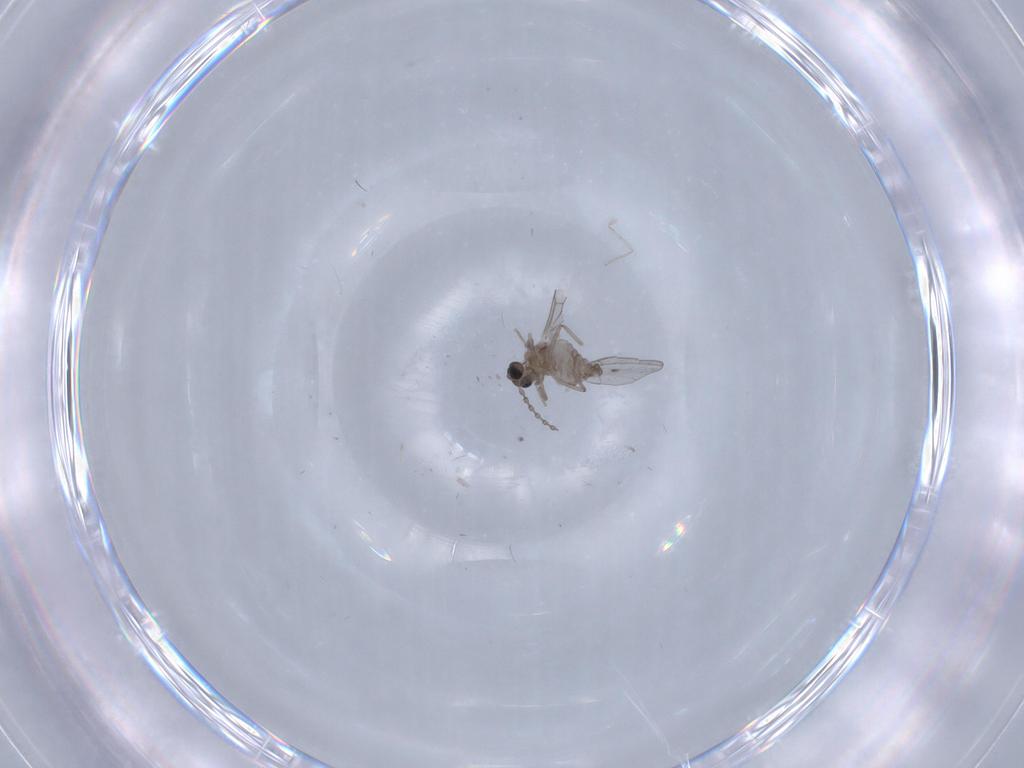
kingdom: Animalia
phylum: Arthropoda
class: Insecta
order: Diptera
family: Cecidomyiidae
